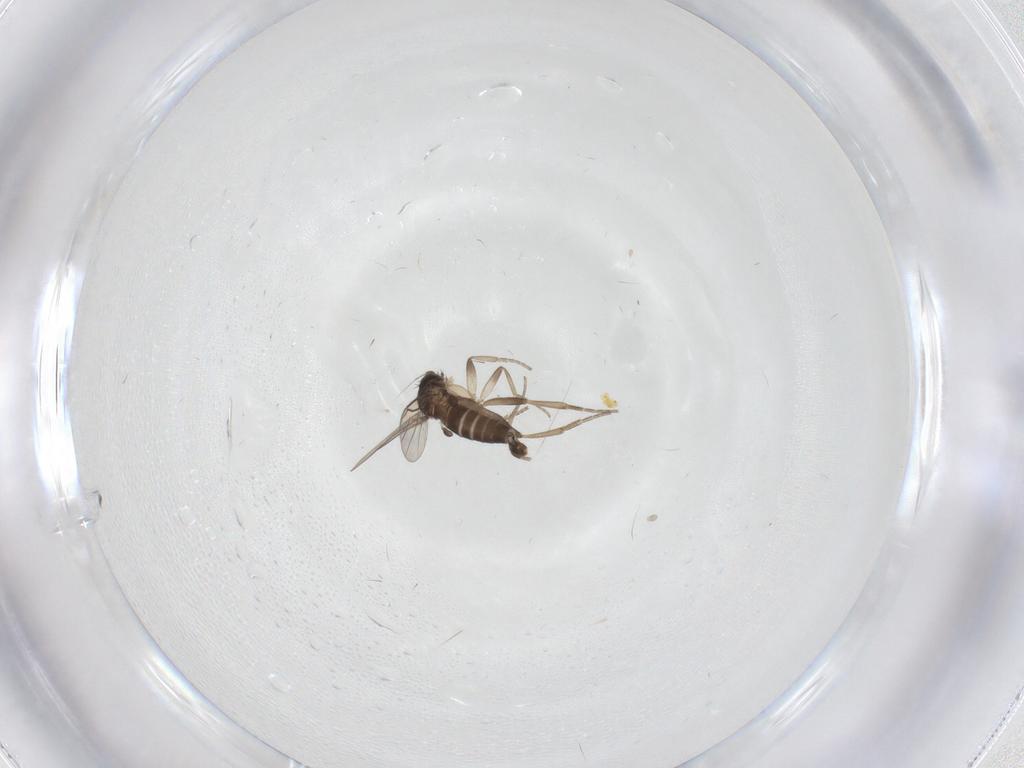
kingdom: Animalia
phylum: Arthropoda
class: Insecta
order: Diptera
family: Phoridae
